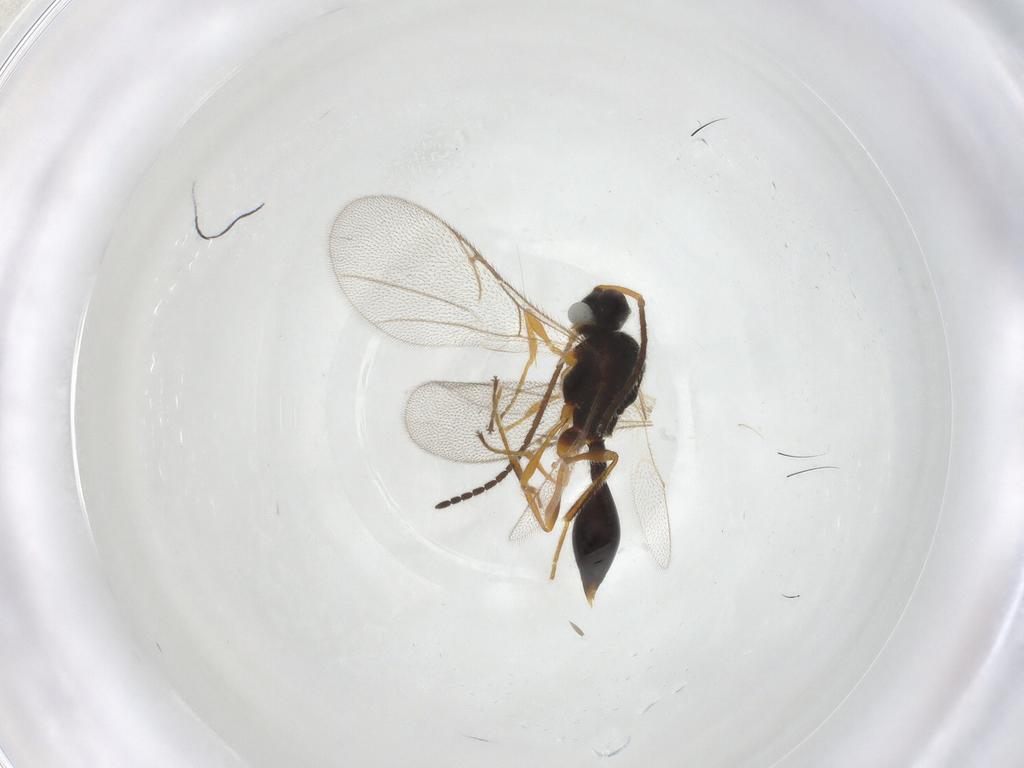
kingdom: Animalia
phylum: Arthropoda
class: Insecta
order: Hymenoptera
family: Diapriidae
